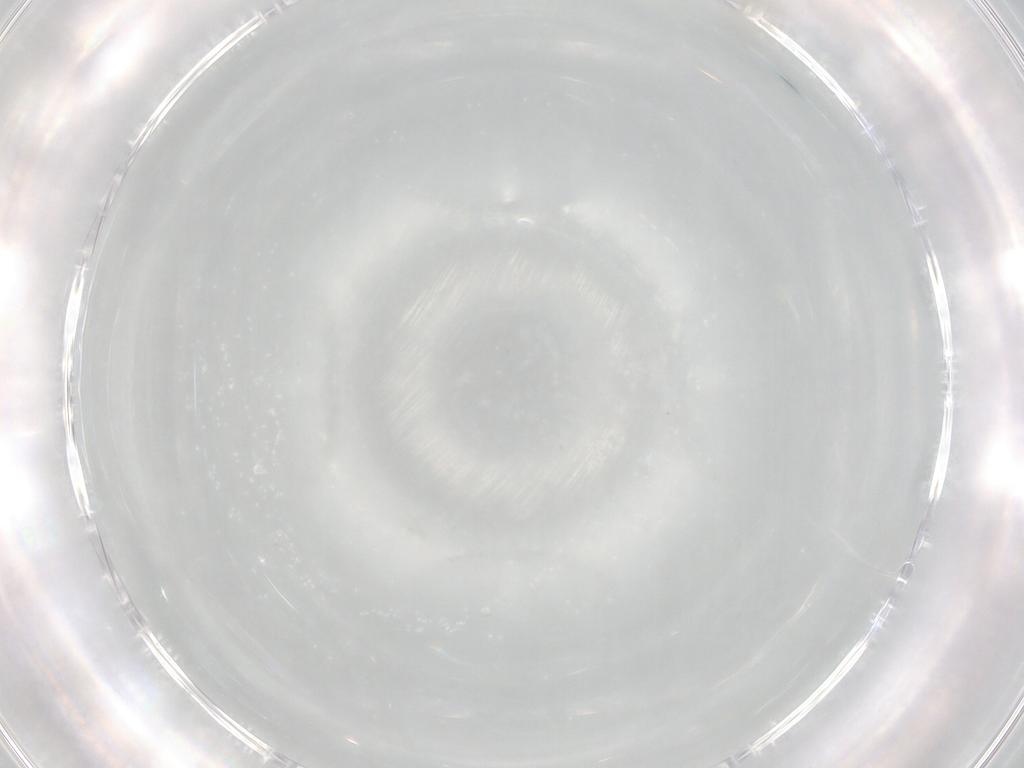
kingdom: Animalia
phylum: Arthropoda
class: Insecta
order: Hemiptera
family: Aleyrodidae
